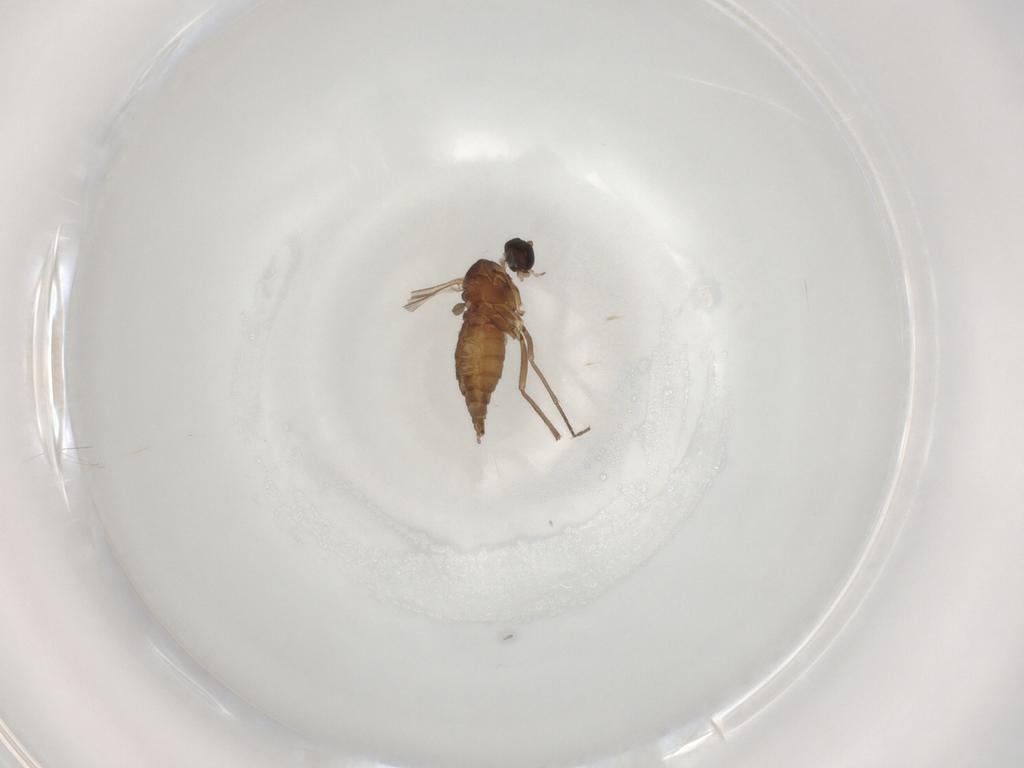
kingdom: Animalia
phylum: Arthropoda
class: Insecta
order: Diptera
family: Sciaridae
